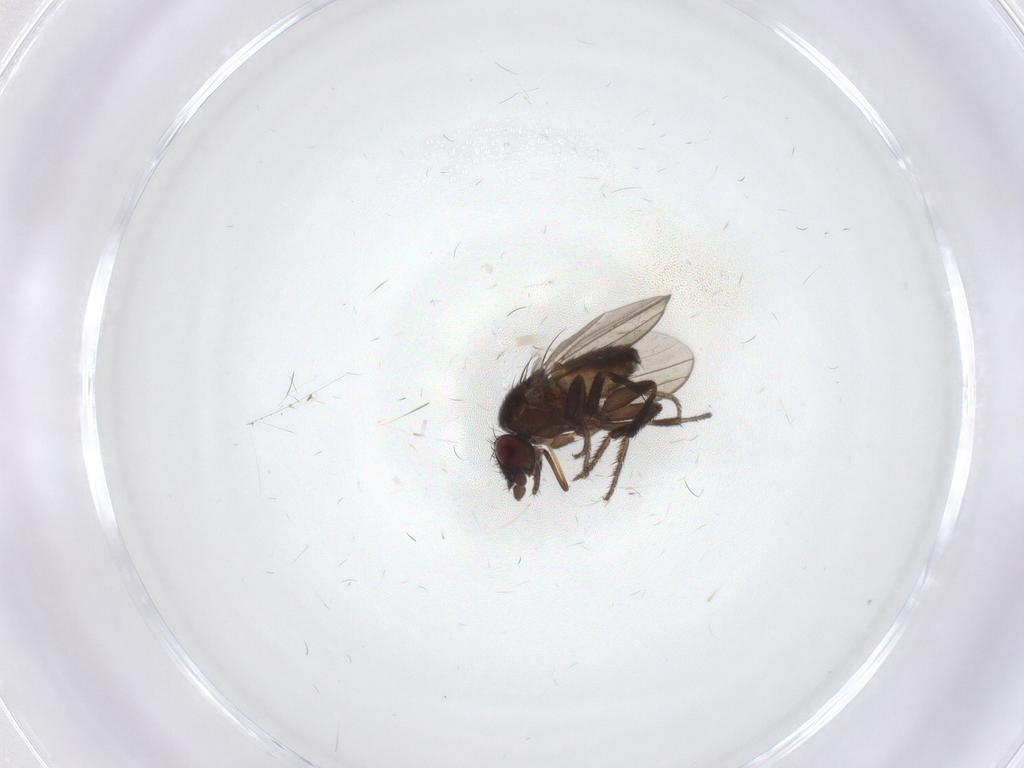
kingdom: Animalia
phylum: Arthropoda
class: Insecta
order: Diptera
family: Milichiidae
